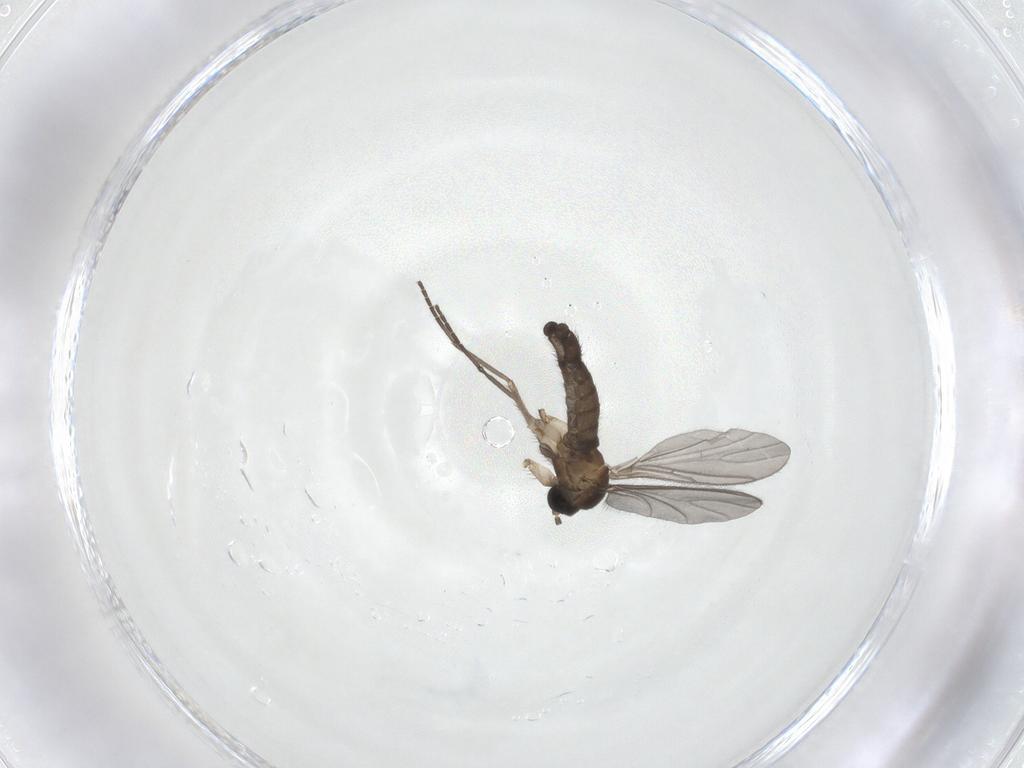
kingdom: Animalia
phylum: Arthropoda
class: Insecta
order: Diptera
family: Sciaridae
